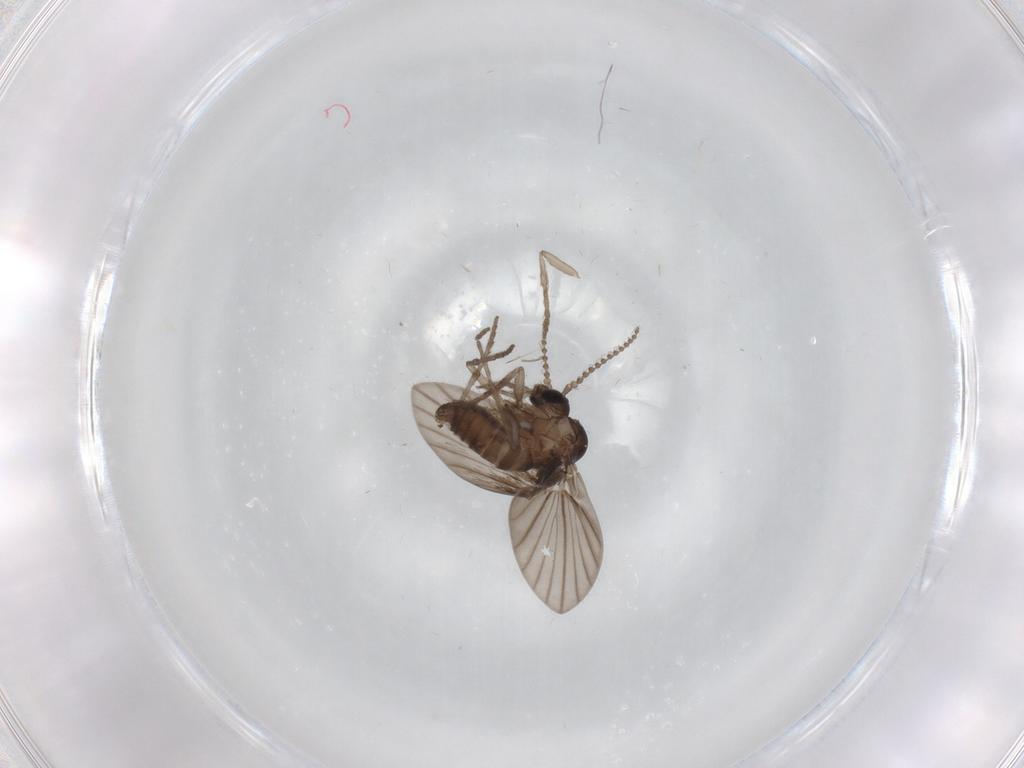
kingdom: Animalia
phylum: Arthropoda
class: Insecta
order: Diptera
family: Psychodidae
